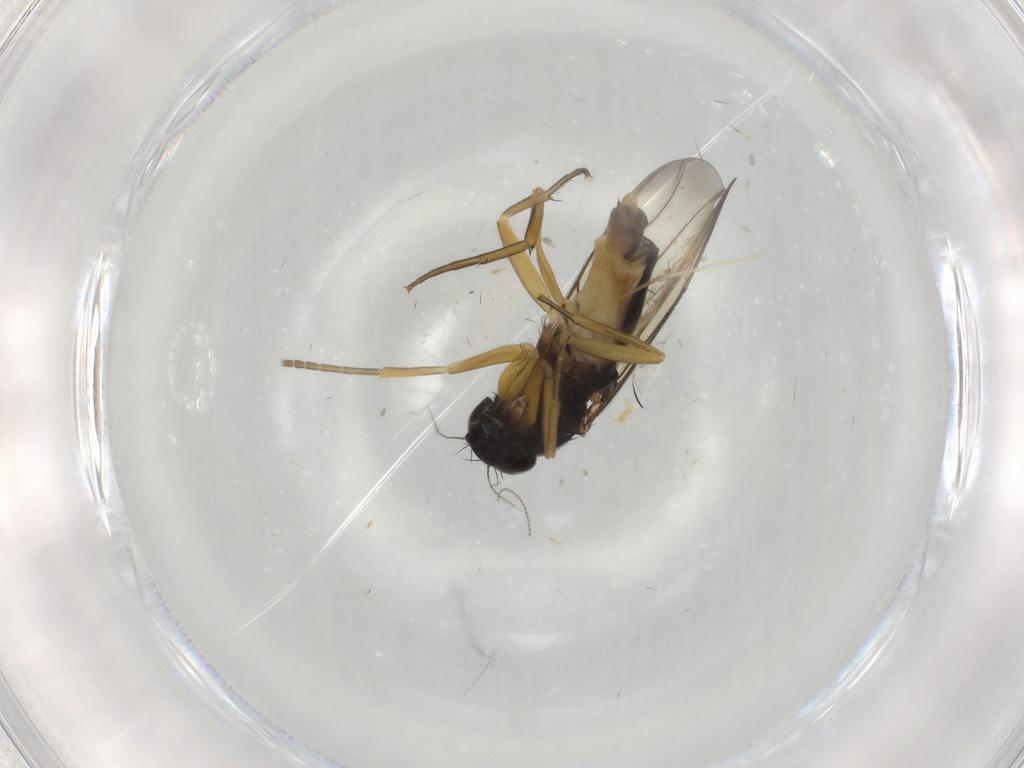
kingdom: Animalia
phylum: Arthropoda
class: Insecta
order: Diptera
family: Cecidomyiidae
